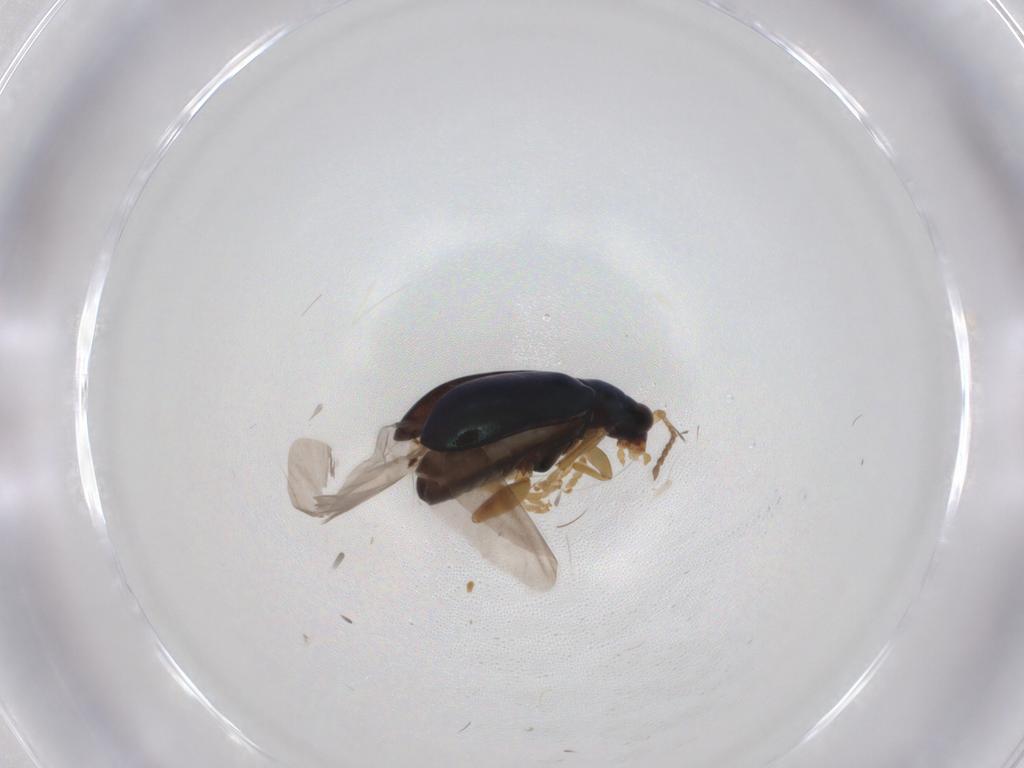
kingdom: Animalia
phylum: Arthropoda
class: Insecta
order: Coleoptera
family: Chrysomelidae
